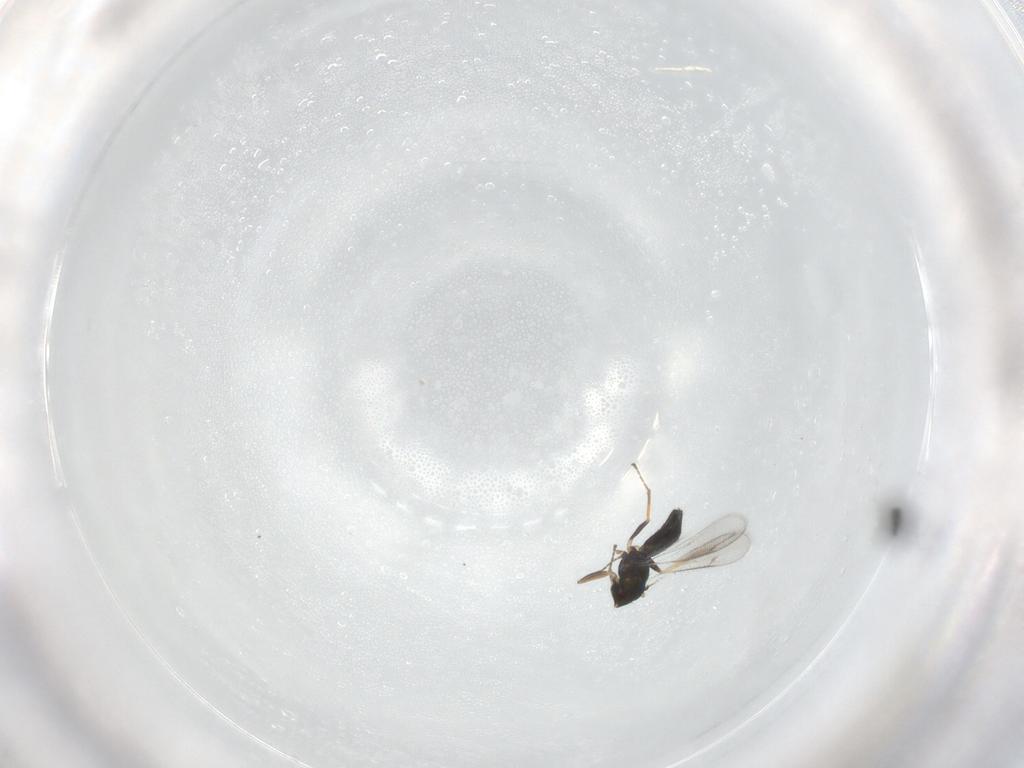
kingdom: Animalia
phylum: Arthropoda
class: Insecta
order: Hymenoptera
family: Eulophidae
